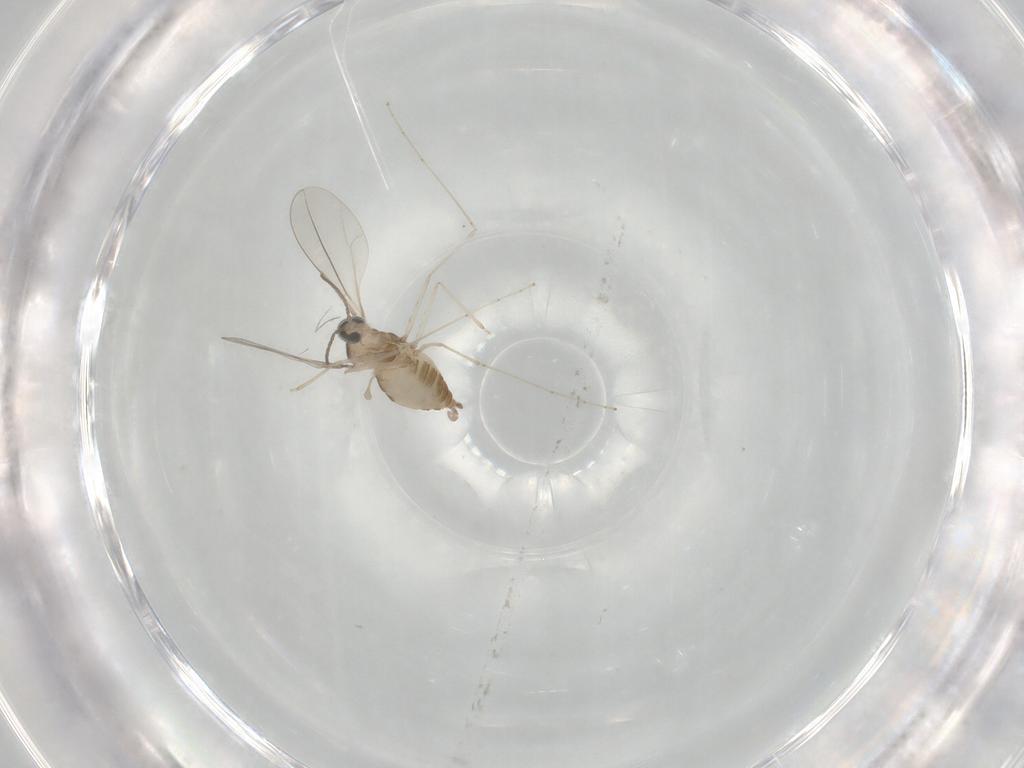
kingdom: Animalia
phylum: Arthropoda
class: Insecta
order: Diptera
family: Cecidomyiidae
